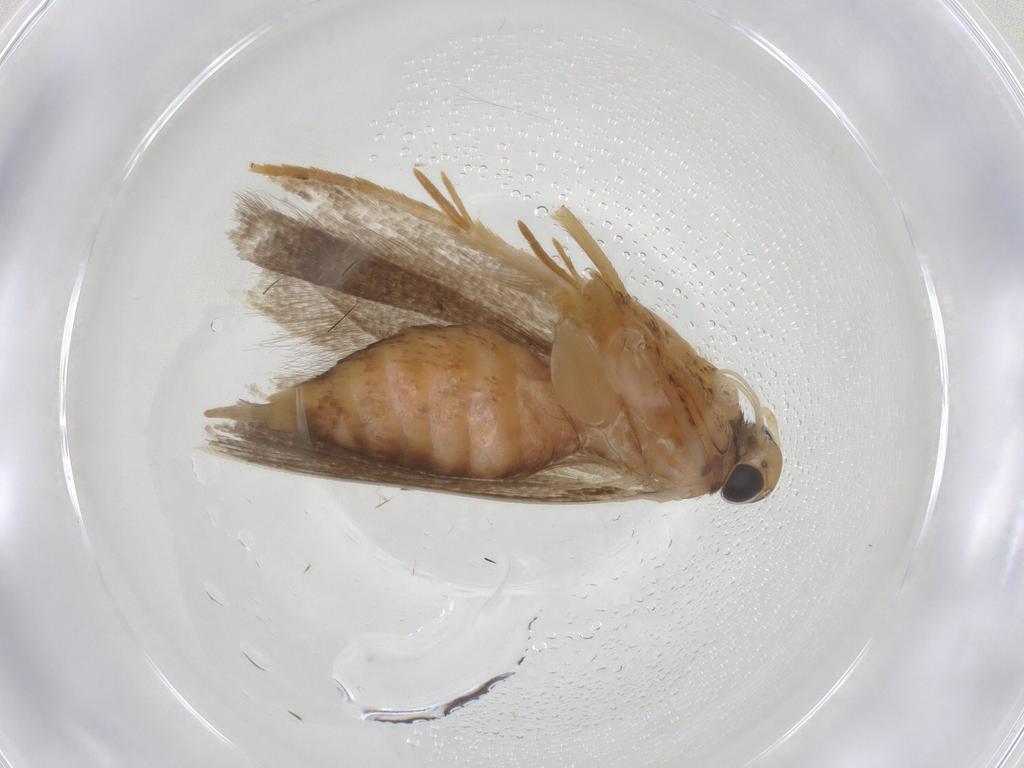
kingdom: Animalia
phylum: Arthropoda
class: Insecta
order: Lepidoptera
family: Gelechiidae
